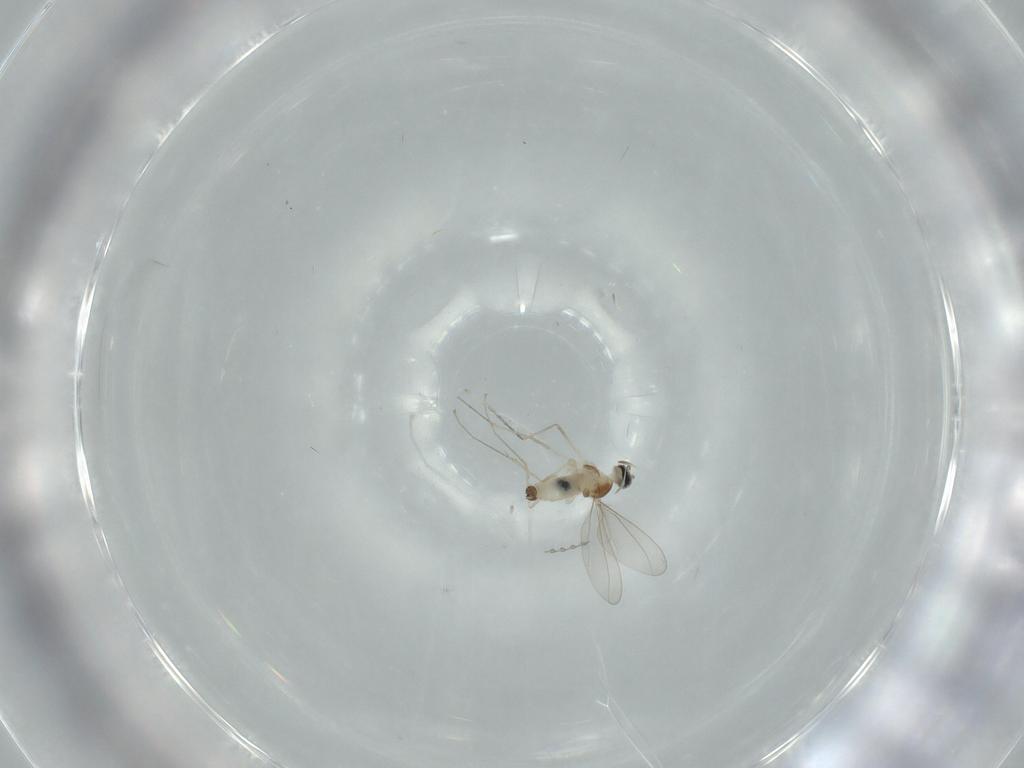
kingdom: Animalia
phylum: Arthropoda
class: Insecta
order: Diptera
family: Cecidomyiidae
